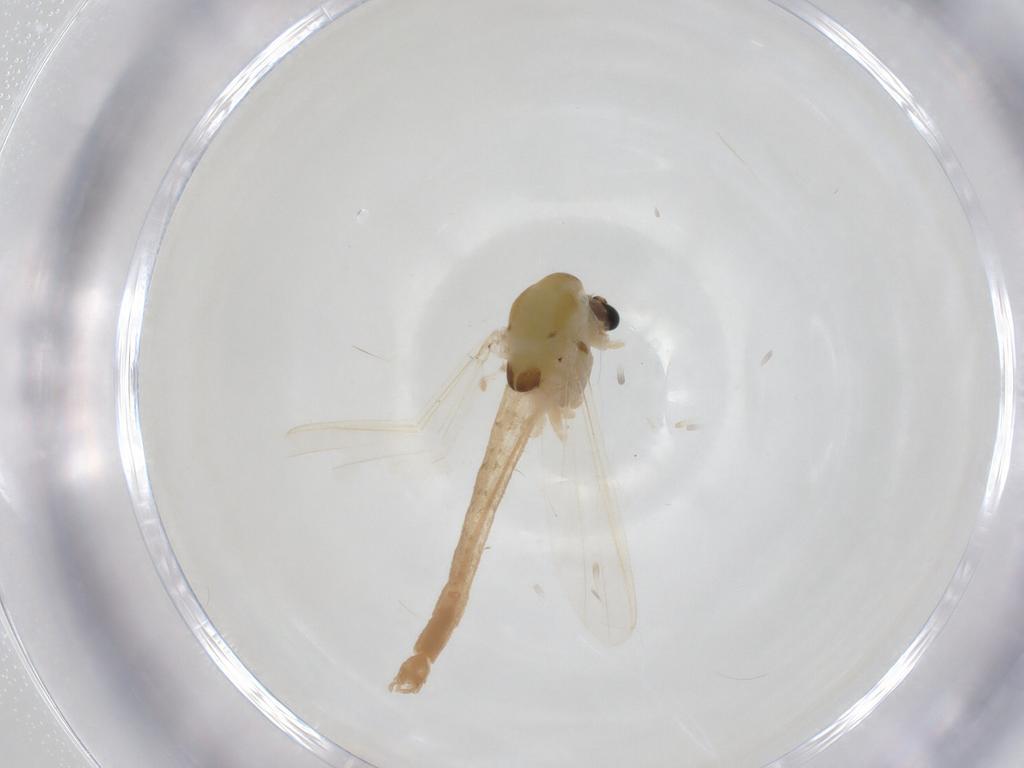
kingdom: Animalia
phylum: Arthropoda
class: Insecta
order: Diptera
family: Chironomidae
